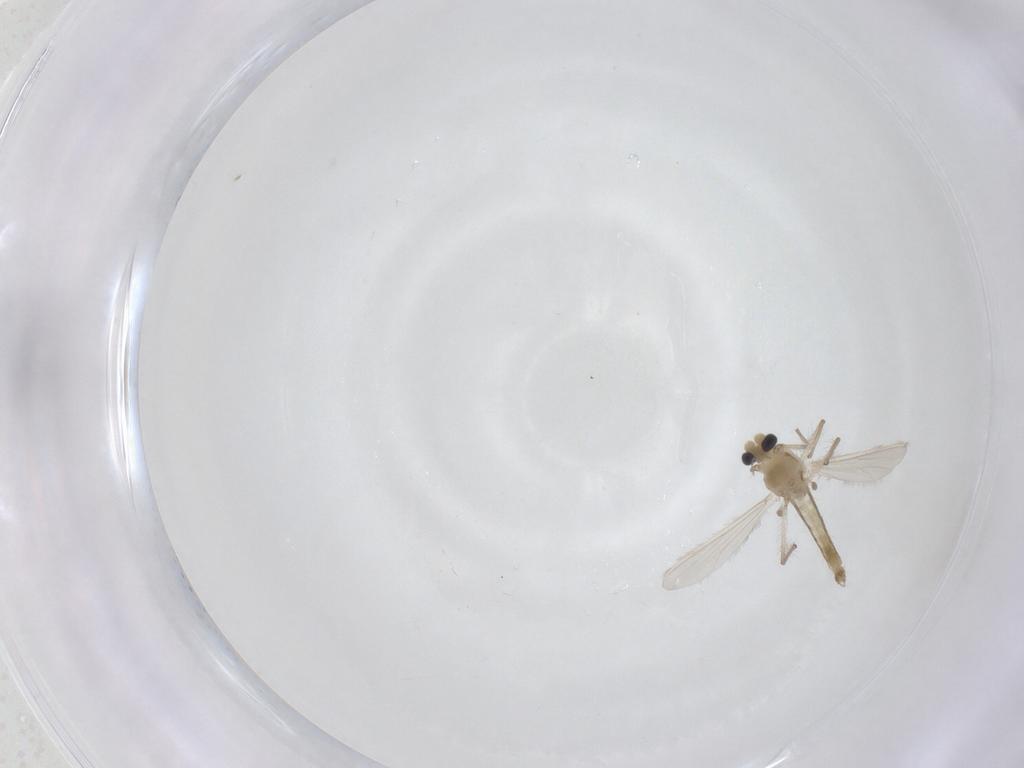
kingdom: Animalia
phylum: Arthropoda
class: Insecta
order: Diptera
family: Chironomidae
